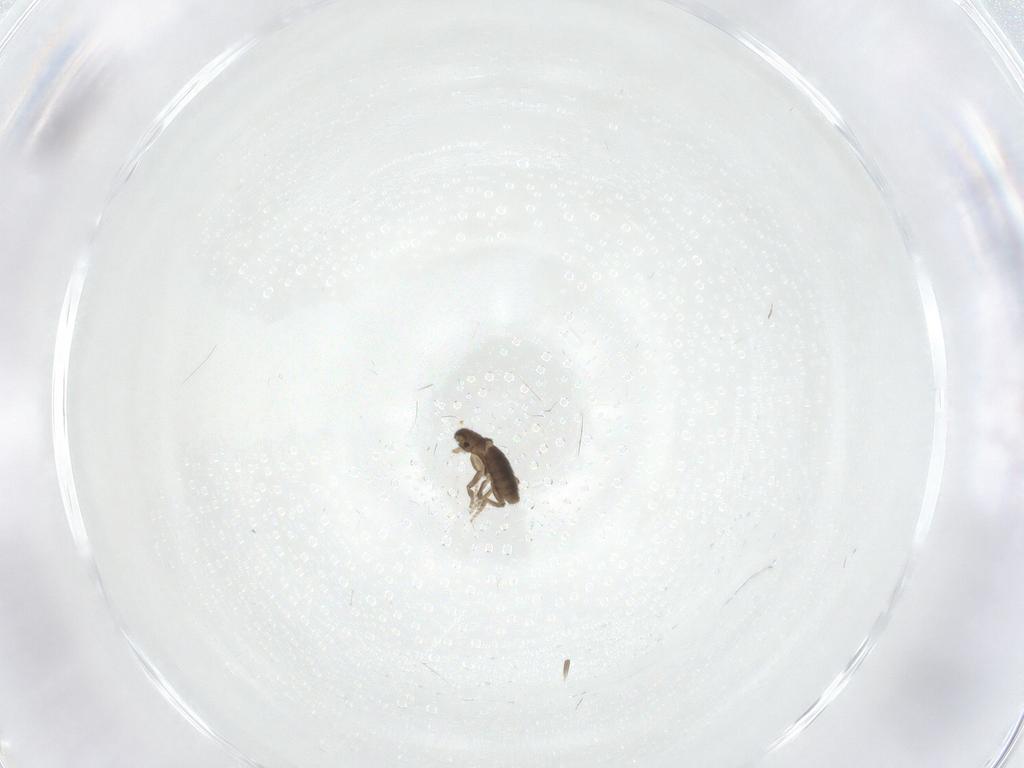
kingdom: Animalia
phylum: Arthropoda
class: Insecta
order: Diptera
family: Phoridae
